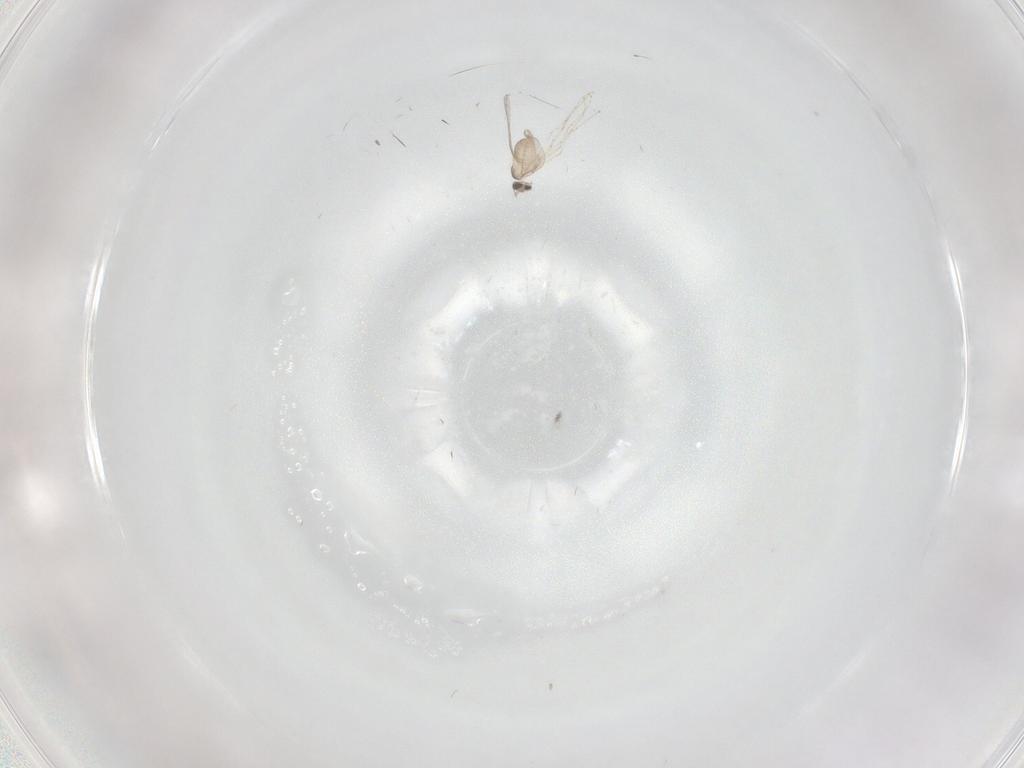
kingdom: Animalia
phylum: Arthropoda
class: Insecta
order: Diptera
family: Cecidomyiidae
